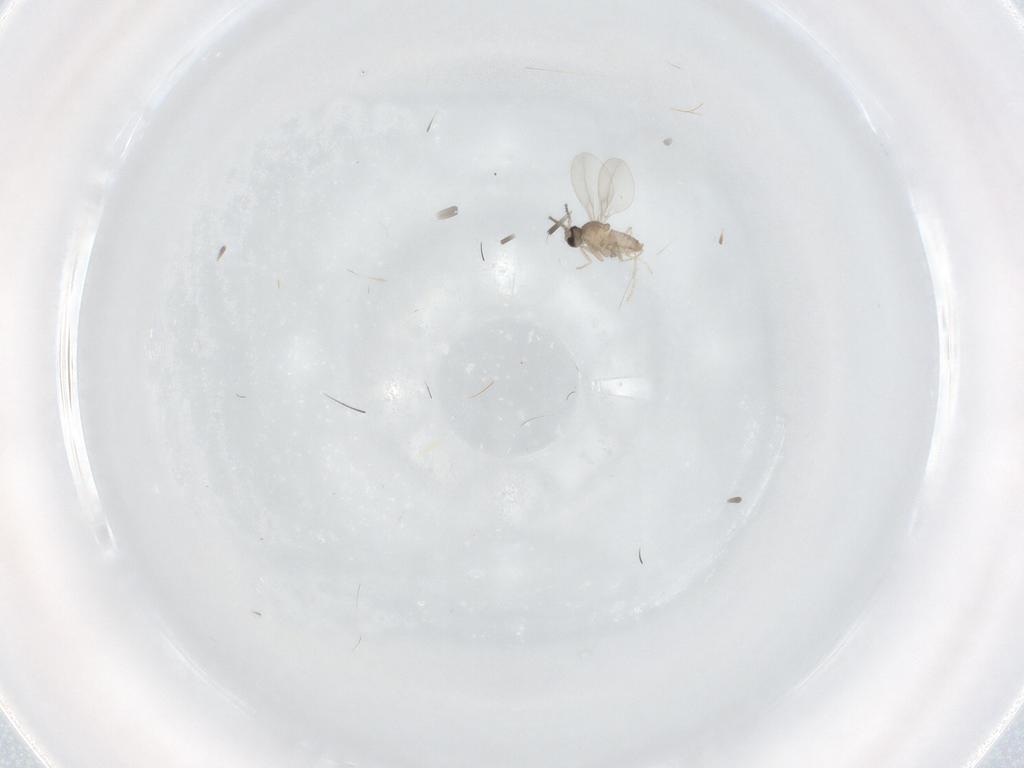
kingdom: Animalia
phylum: Arthropoda
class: Insecta
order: Diptera
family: Cecidomyiidae
